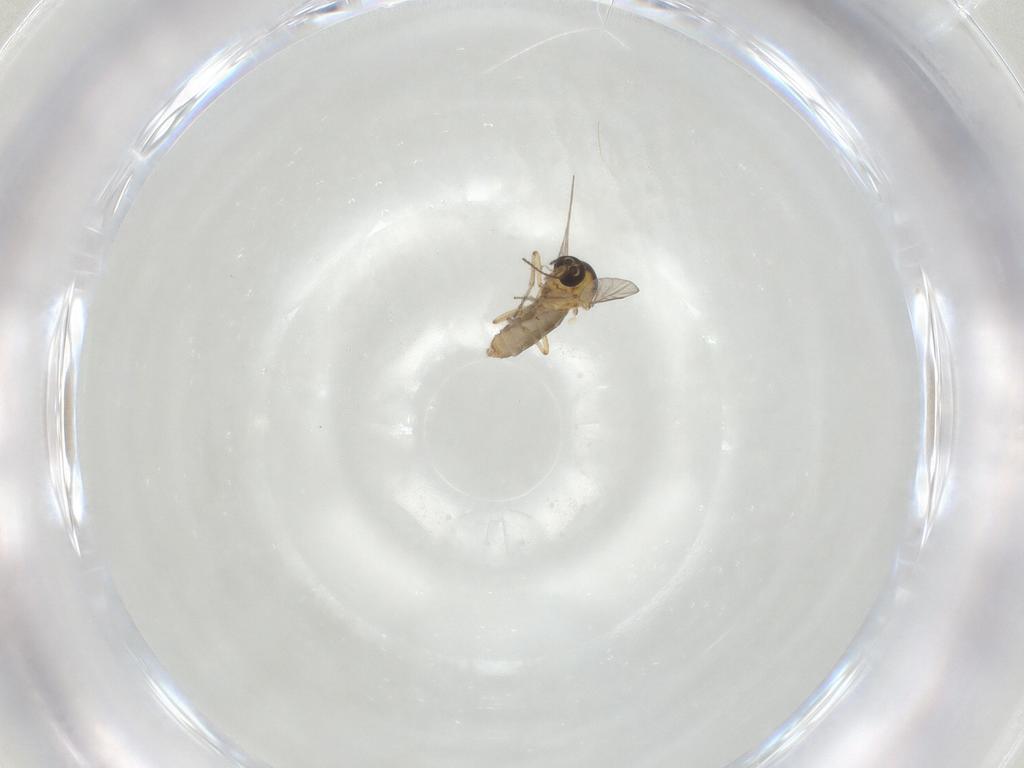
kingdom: Animalia
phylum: Arthropoda
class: Insecta
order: Diptera
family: Ceratopogonidae
